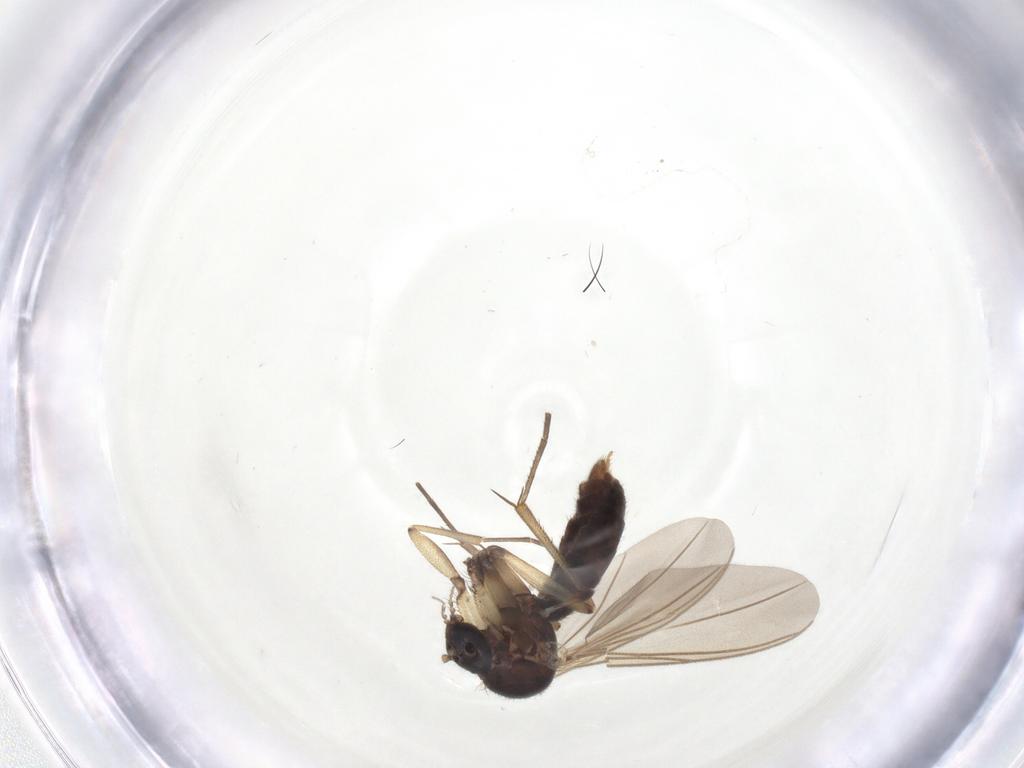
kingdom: Animalia
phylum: Arthropoda
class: Insecta
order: Diptera
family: Ceratopogonidae
